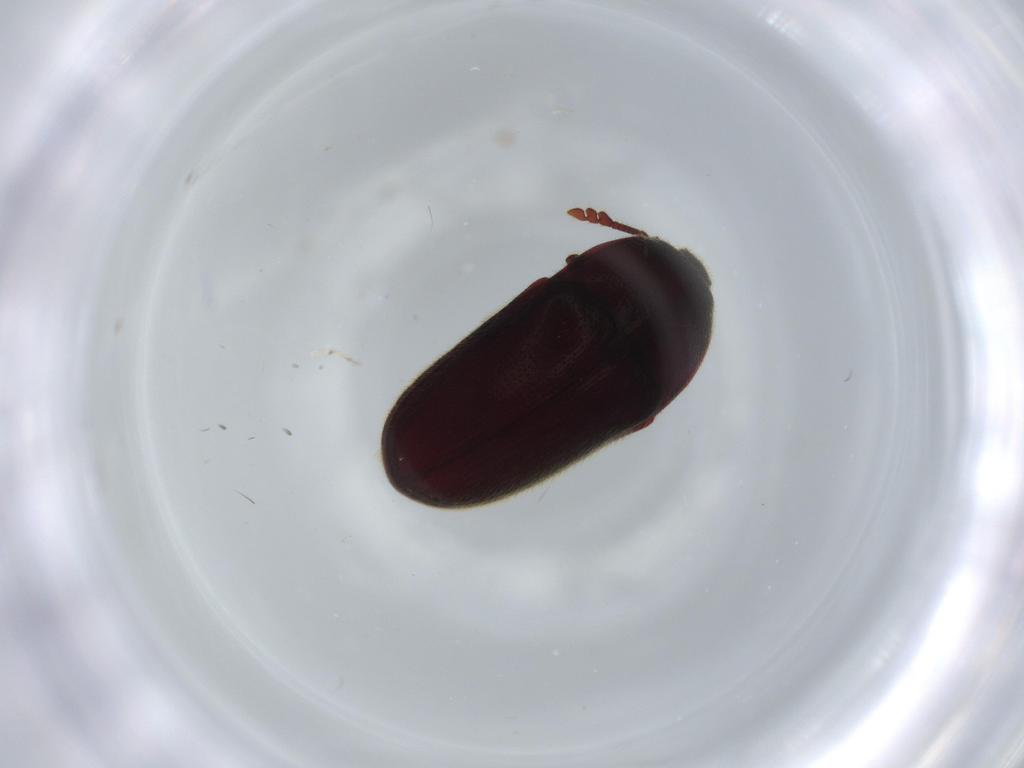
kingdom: Animalia
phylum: Arthropoda
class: Insecta
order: Coleoptera
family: Throscidae
